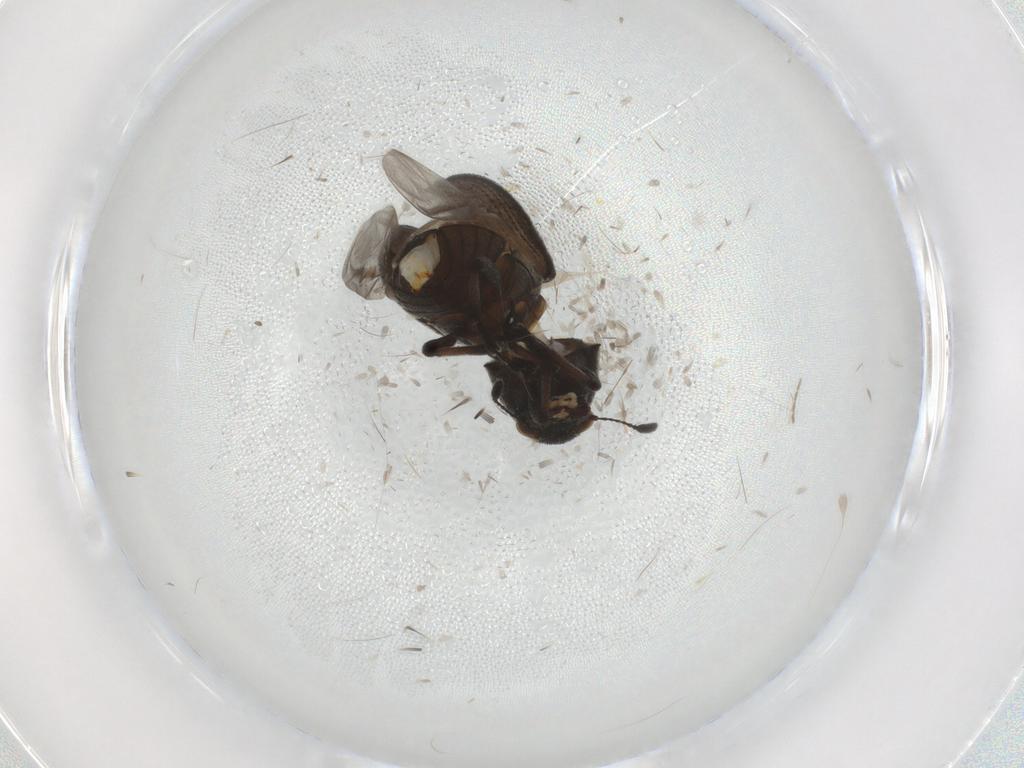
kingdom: Animalia
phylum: Arthropoda
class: Insecta
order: Coleoptera
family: Anthribidae
